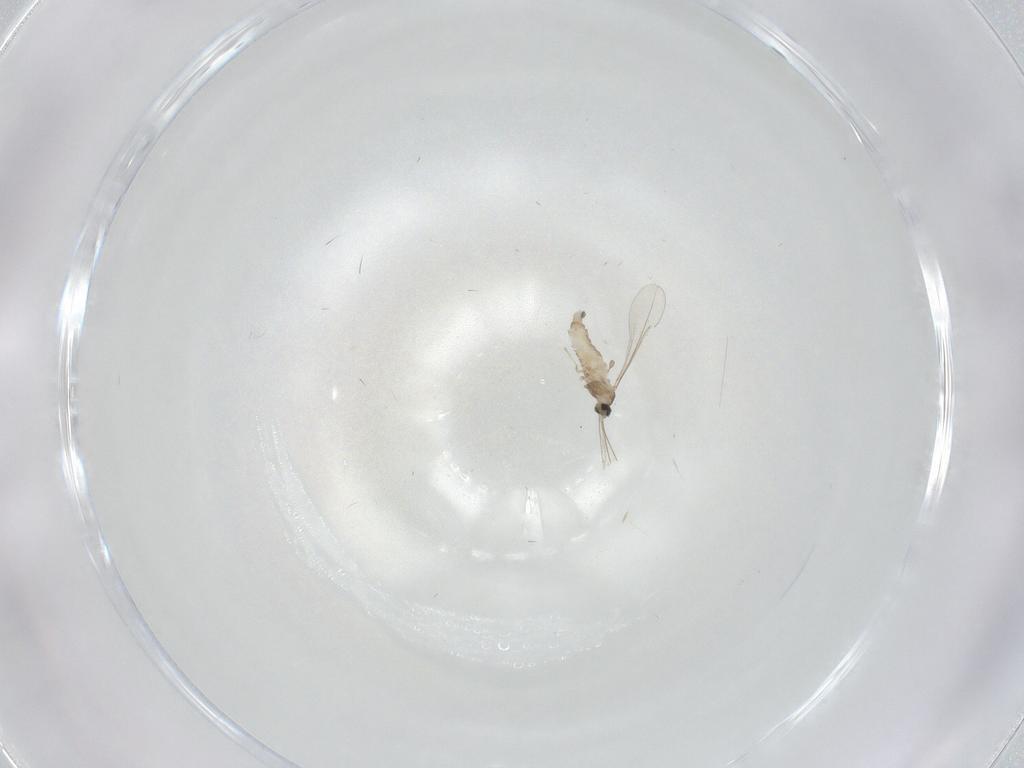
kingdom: Animalia
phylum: Arthropoda
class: Insecta
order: Diptera
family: Cecidomyiidae
